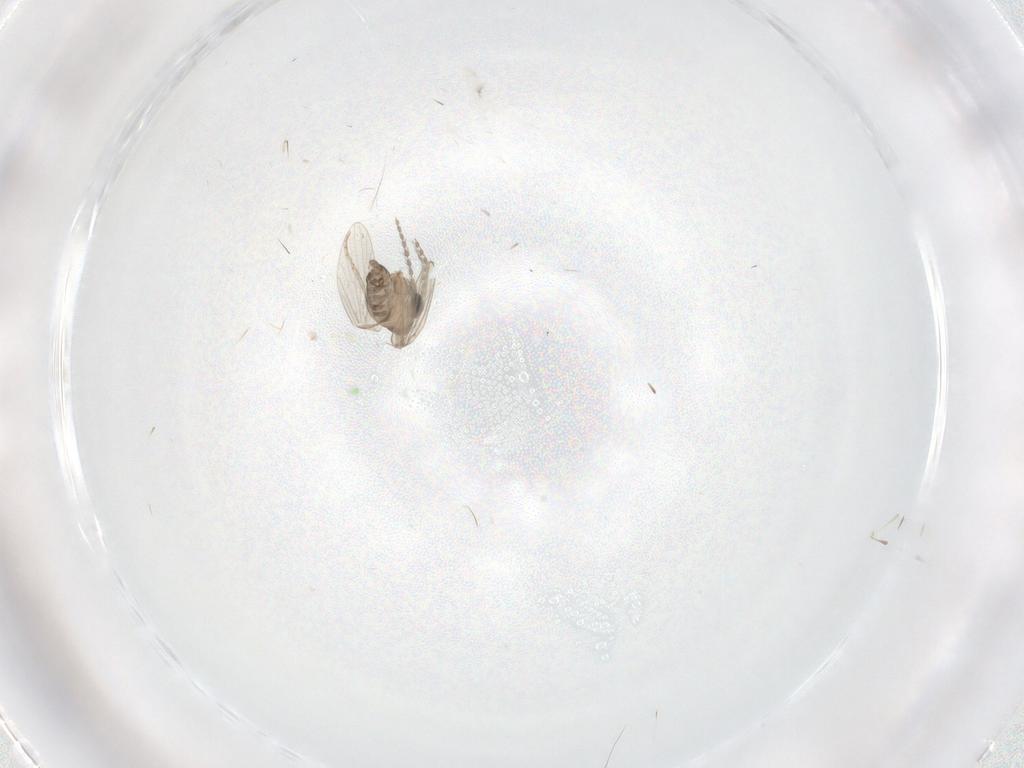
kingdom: Animalia
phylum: Arthropoda
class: Insecta
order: Diptera
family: Cecidomyiidae
